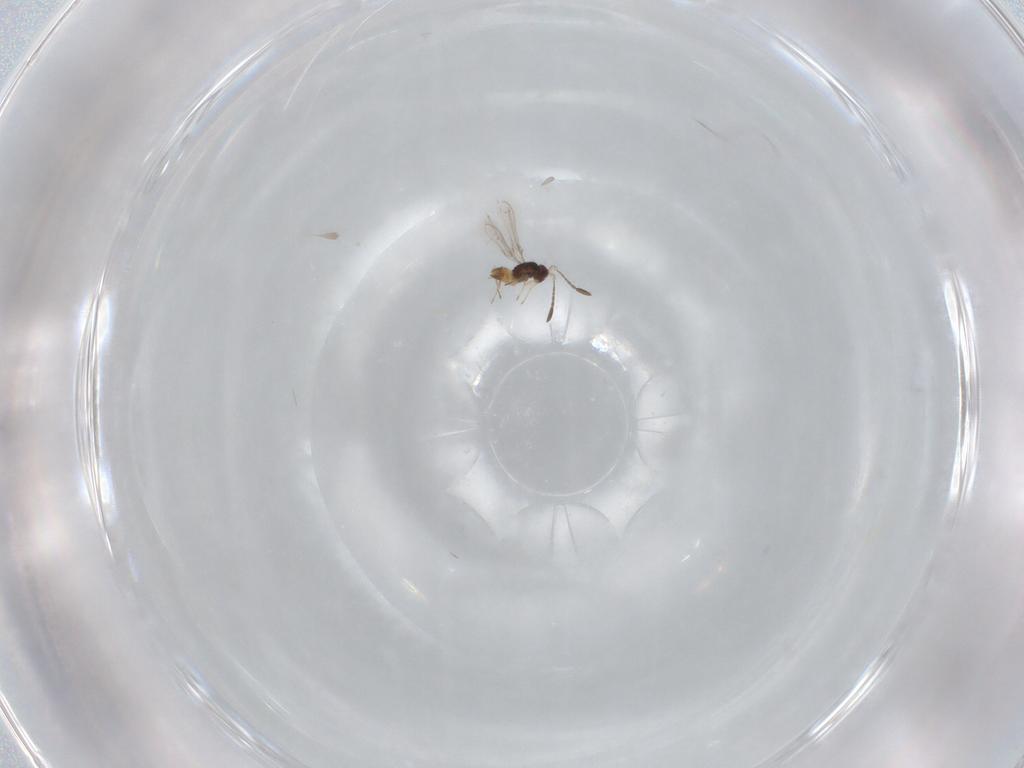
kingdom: Animalia
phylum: Arthropoda
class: Insecta
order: Hymenoptera
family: Mymaridae
